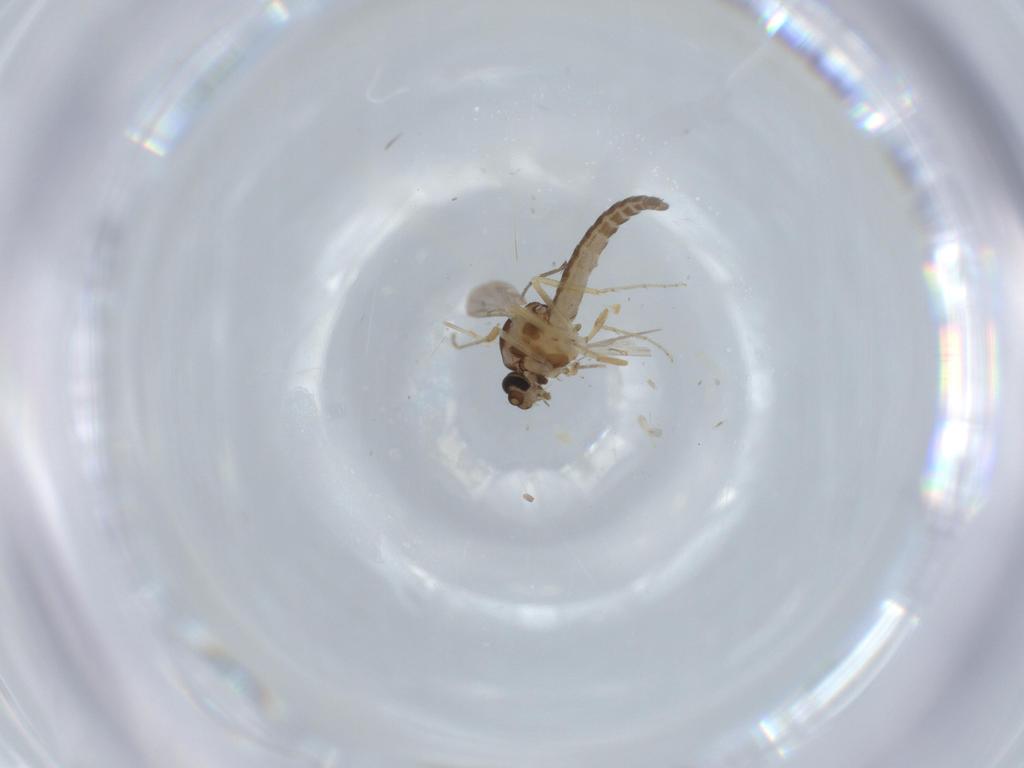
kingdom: Animalia
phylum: Arthropoda
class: Insecta
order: Diptera
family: Ceratopogonidae
